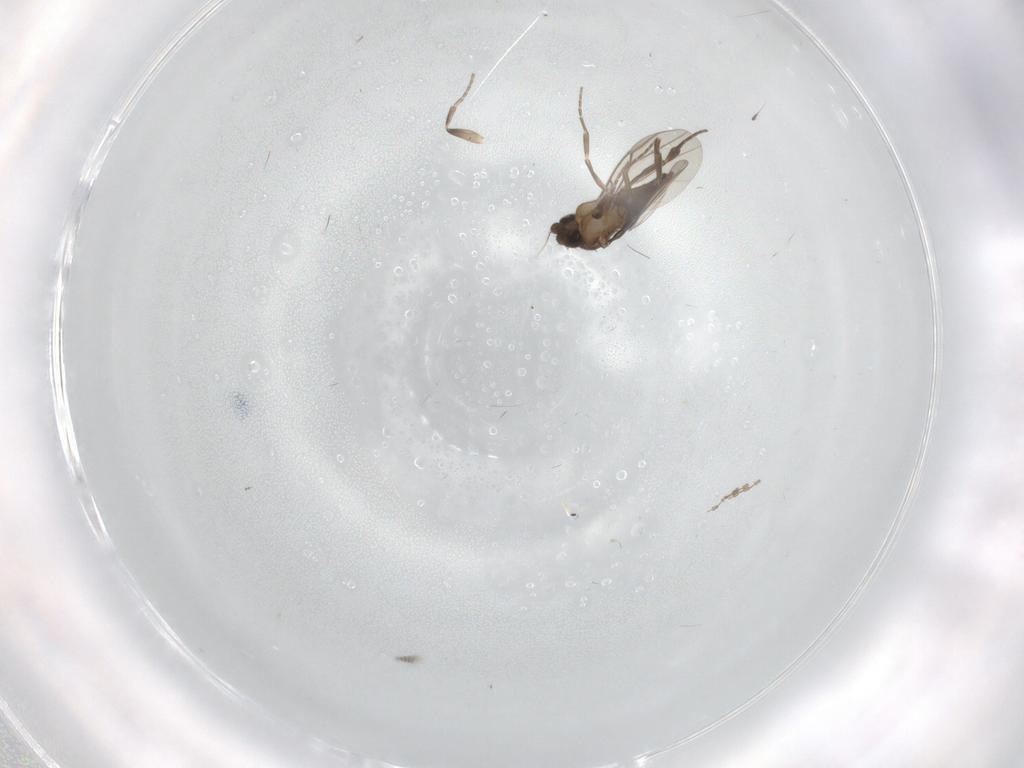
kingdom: Animalia
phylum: Arthropoda
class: Insecta
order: Diptera
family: Sciaridae
